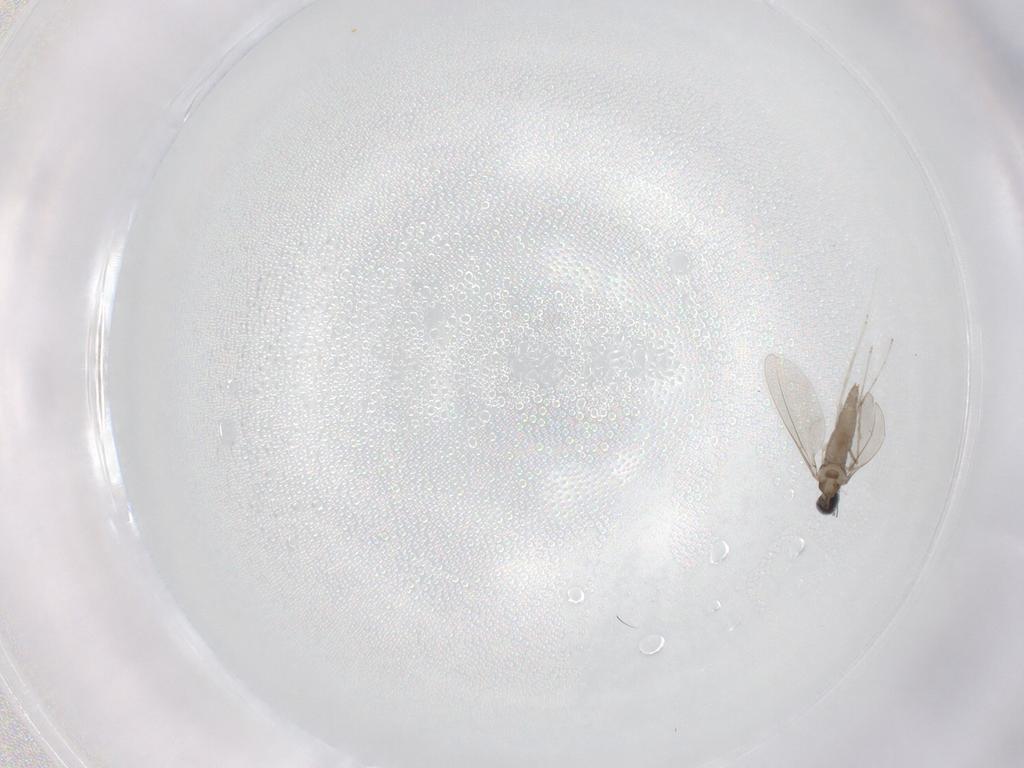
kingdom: Animalia
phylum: Arthropoda
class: Insecta
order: Diptera
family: Cecidomyiidae
